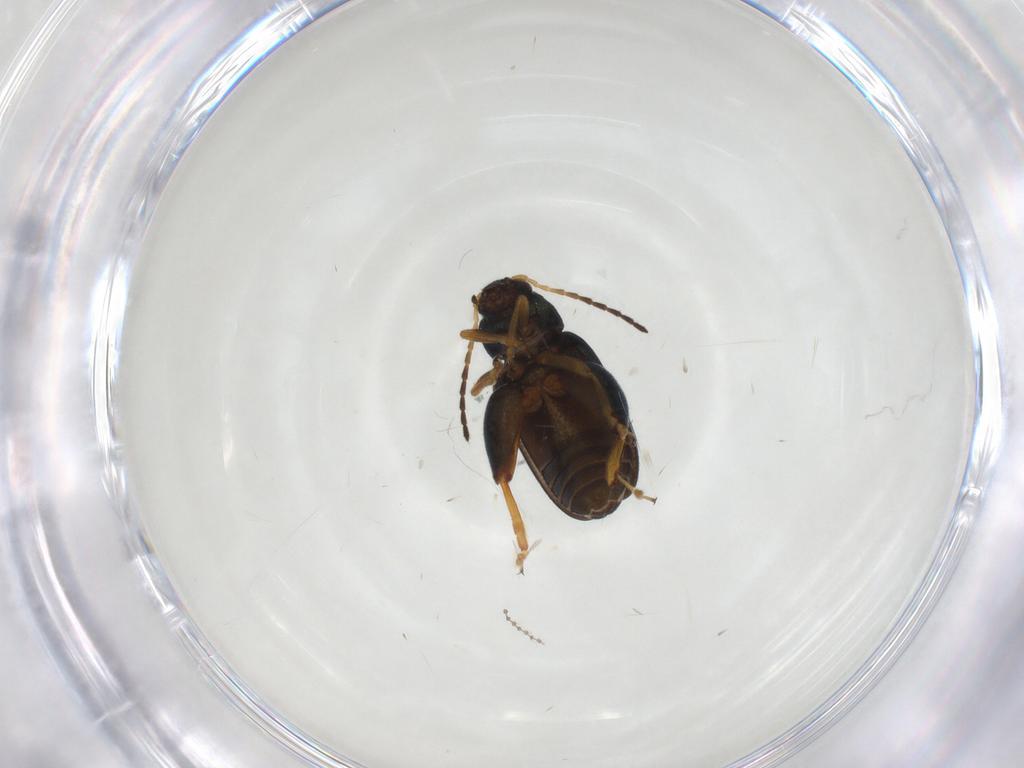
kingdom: Animalia
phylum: Arthropoda
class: Insecta
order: Coleoptera
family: Chrysomelidae
